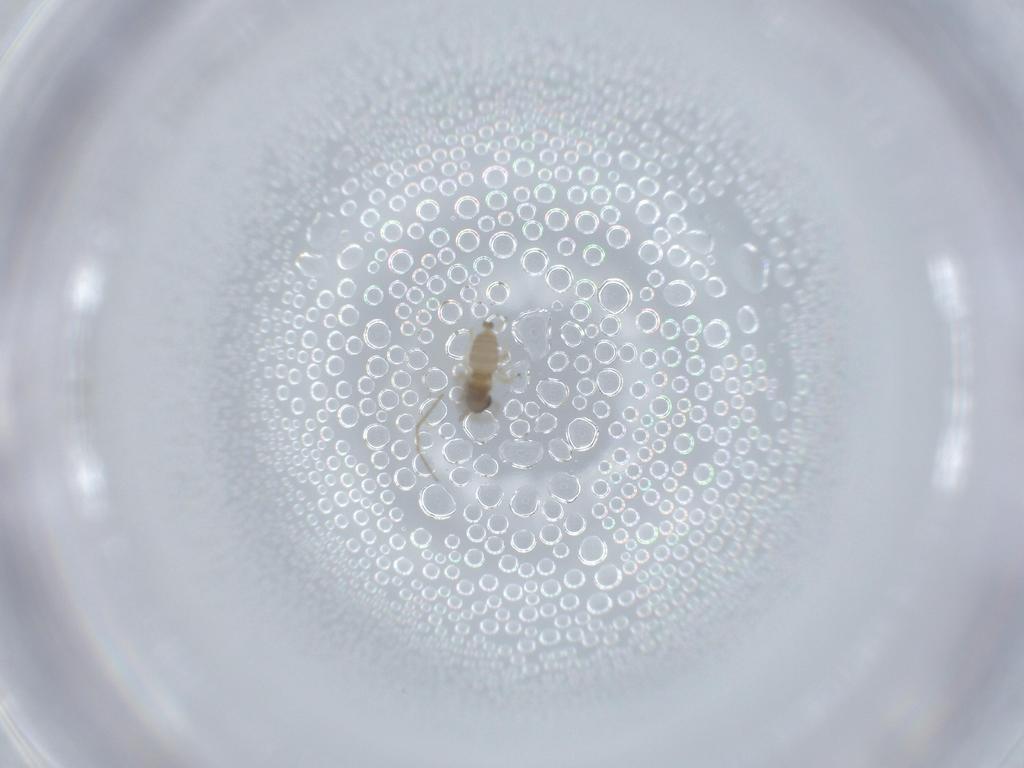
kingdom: Animalia
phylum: Arthropoda
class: Insecta
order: Diptera
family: Cecidomyiidae
